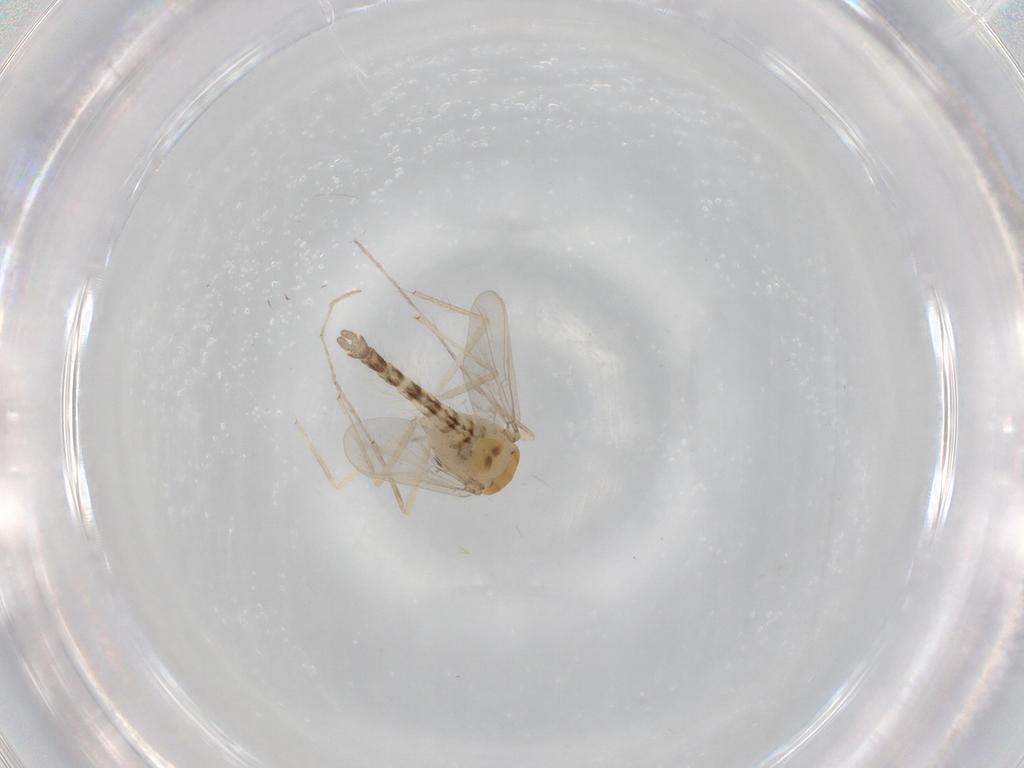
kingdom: Animalia
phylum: Arthropoda
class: Insecta
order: Diptera
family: Chironomidae
